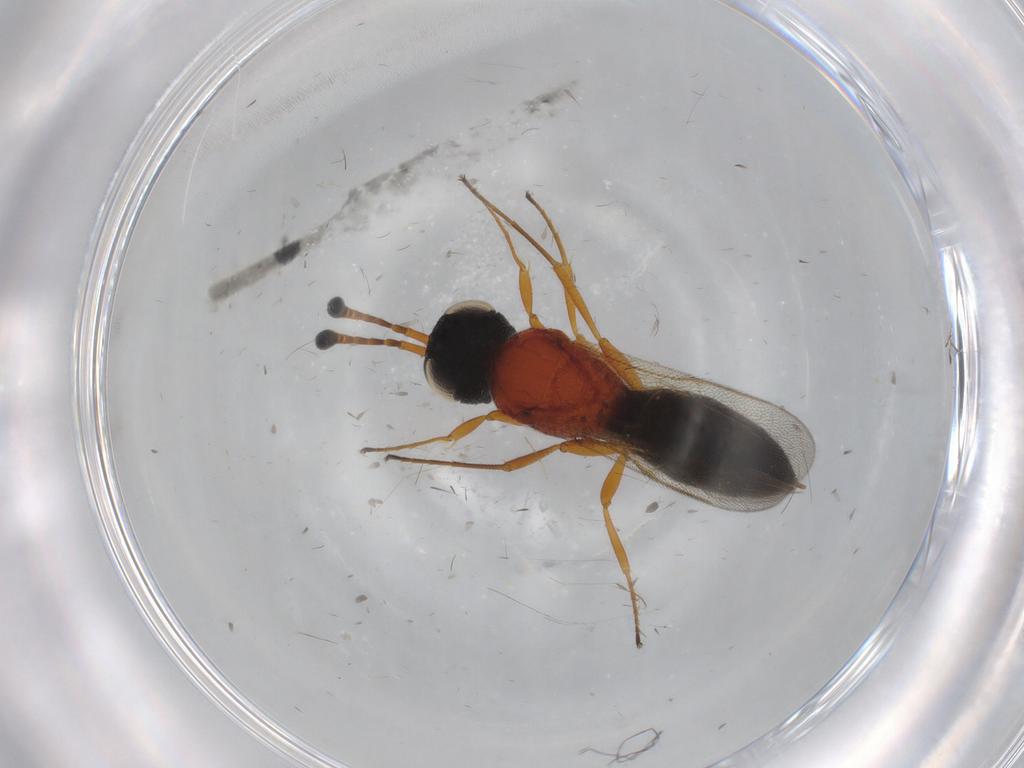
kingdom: Animalia
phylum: Arthropoda
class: Insecta
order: Hymenoptera
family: Scelionidae
